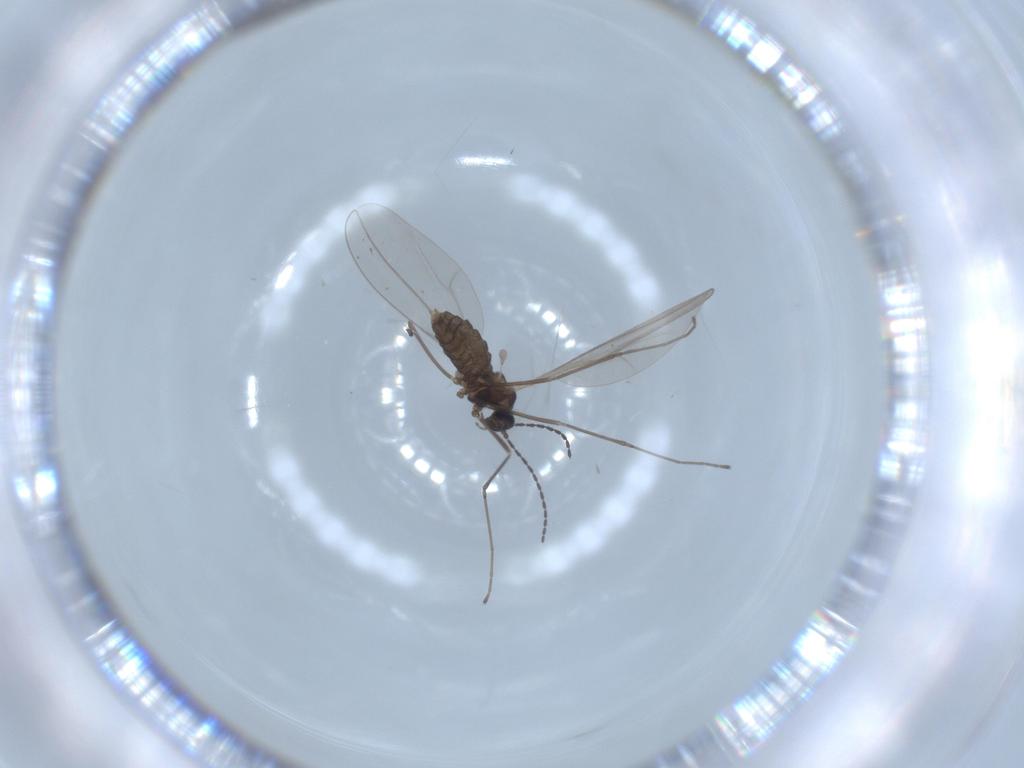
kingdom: Animalia
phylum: Arthropoda
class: Insecta
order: Diptera
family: Cecidomyiidae
